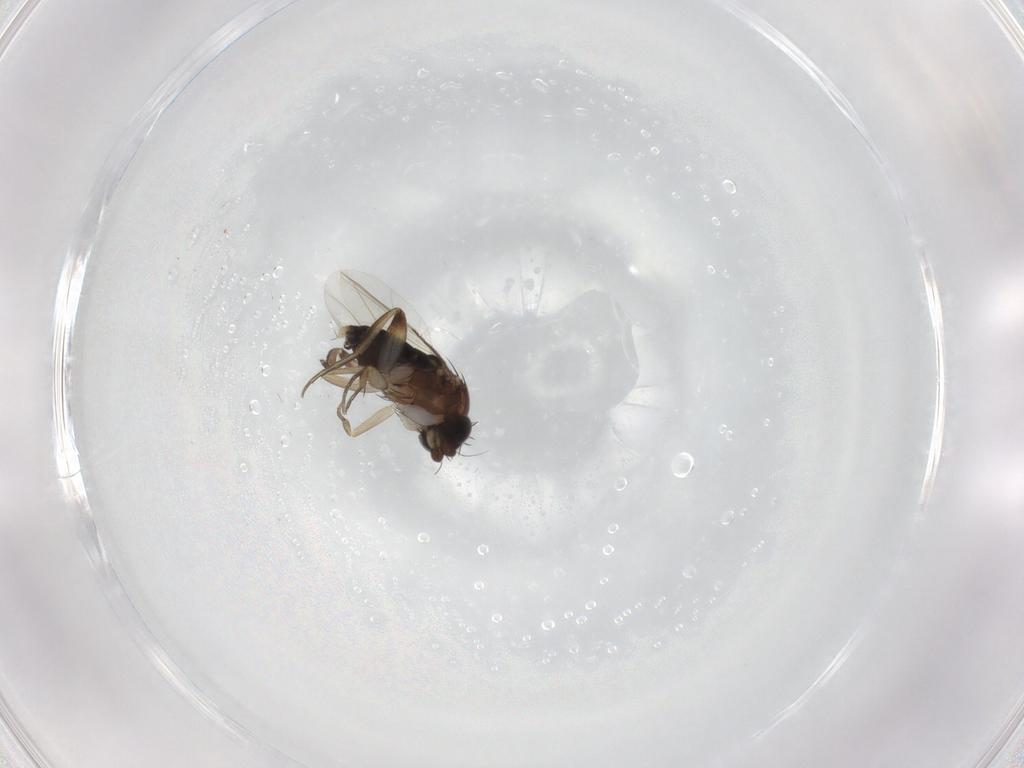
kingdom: Animalia
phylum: Arthropoda
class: Insecta
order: Diptera
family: Phoridae
